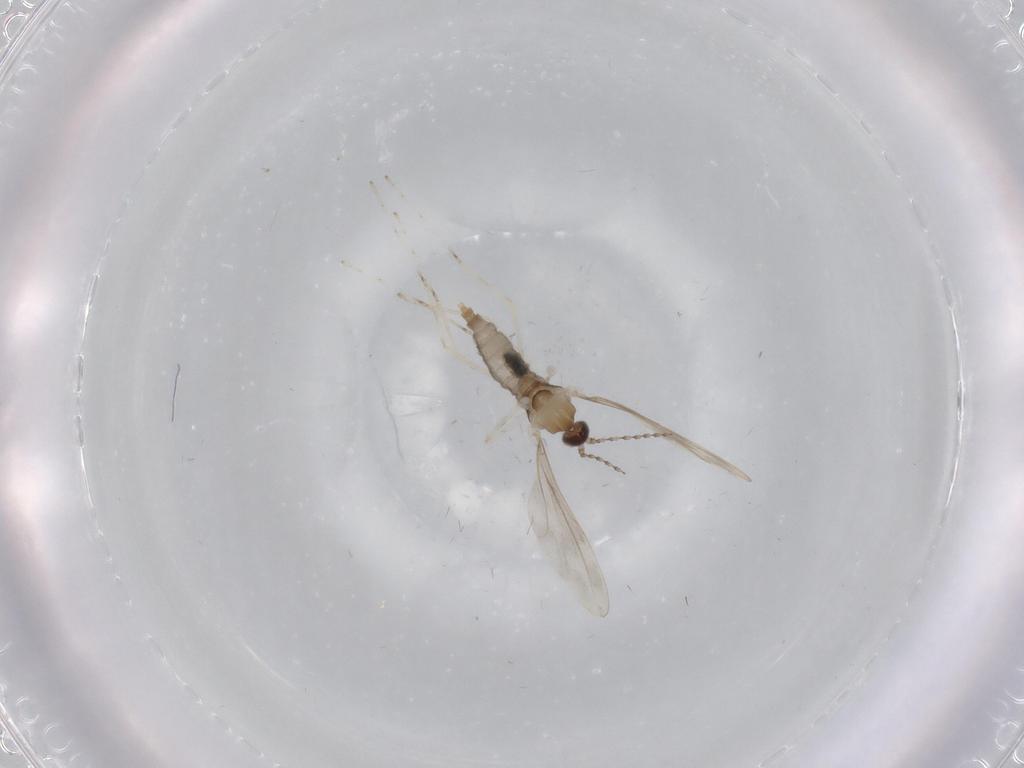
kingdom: Animalia
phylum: Arthropoda
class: Insecta
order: Diptera
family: Cecidomyiidae
